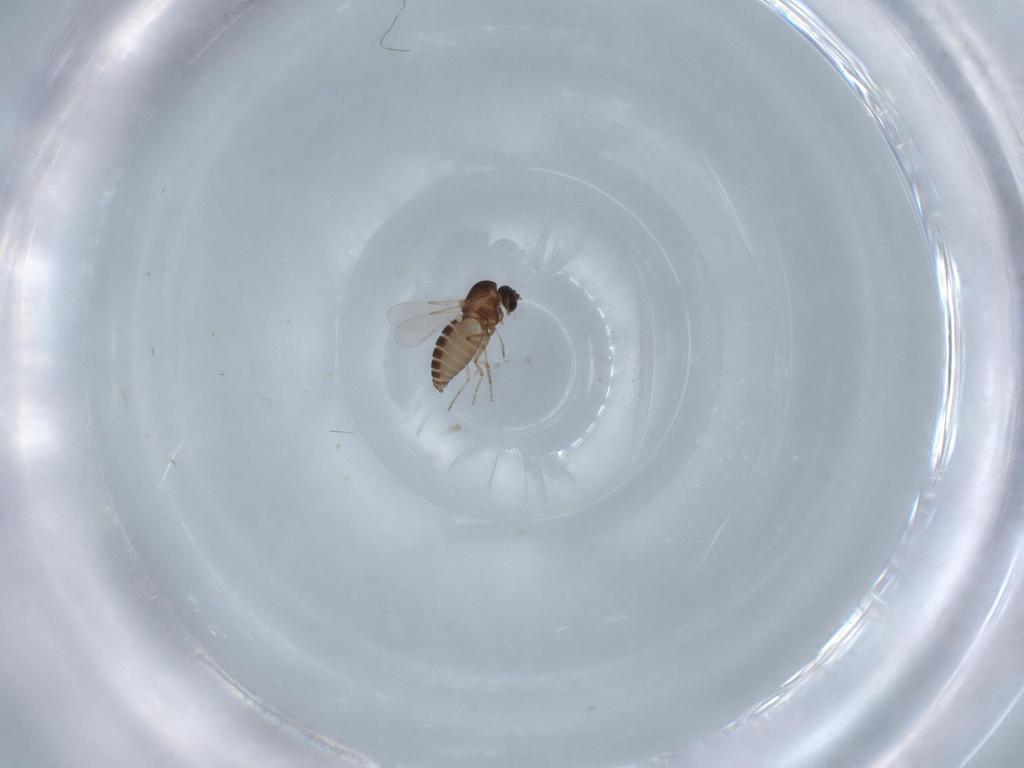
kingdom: Animalia
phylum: Arthropoda
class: Insecta
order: Diptera
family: Ceratopogonidae
